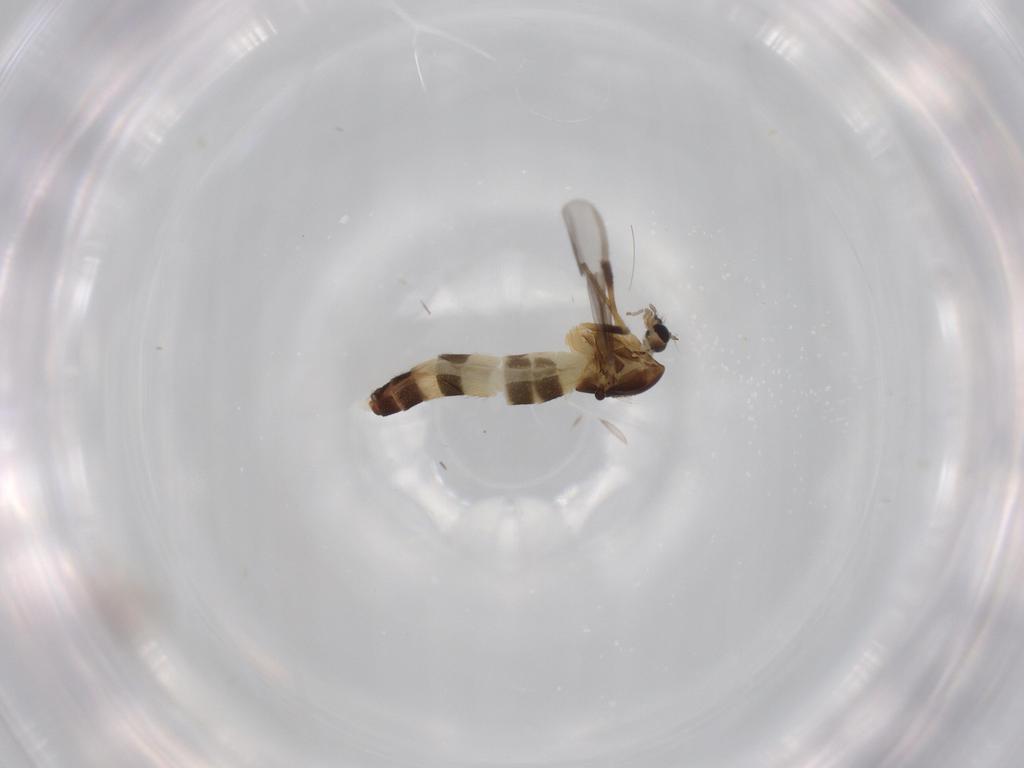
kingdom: Animalia
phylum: Arthropoda
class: Insecta
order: Diptera
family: Chironomidae
